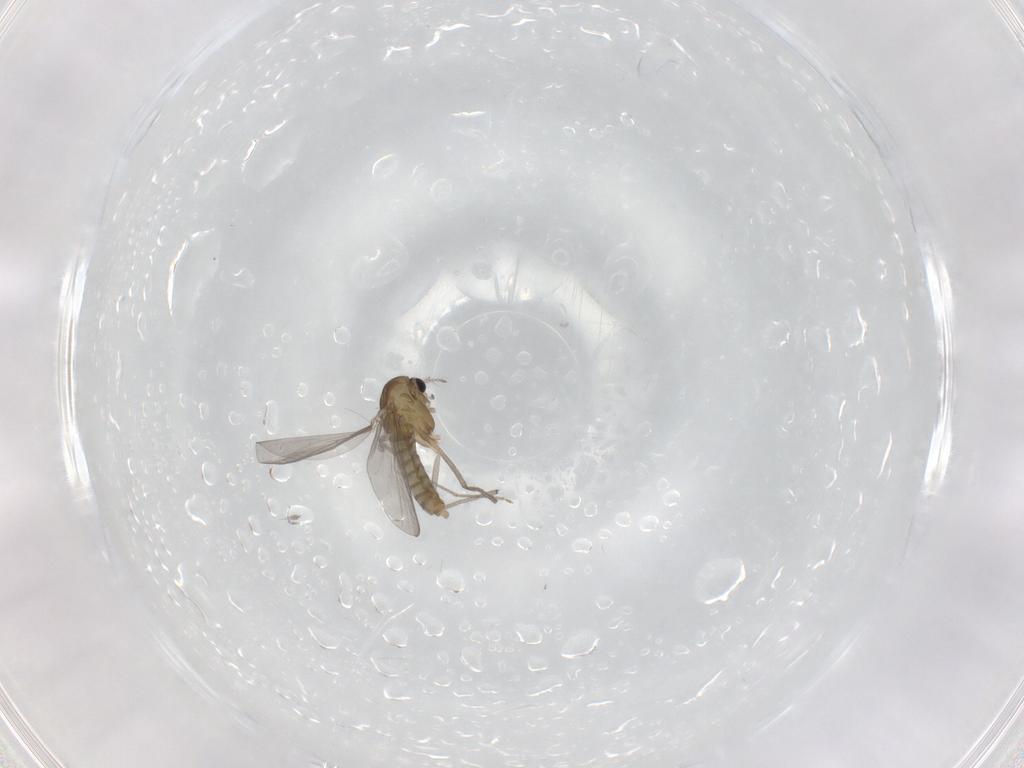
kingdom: Animalia
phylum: Arthropoda
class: Insecta
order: Diptera
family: Chironomidae
